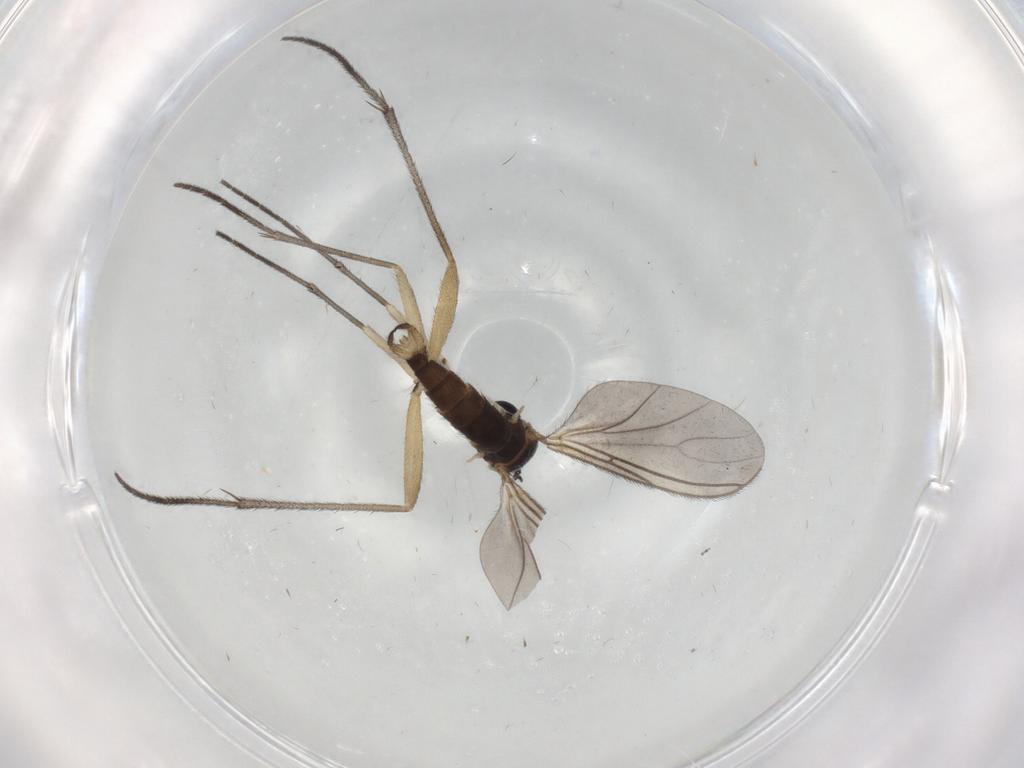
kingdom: Animalia
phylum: Arthropoda
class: Insecta
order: Diptera
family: Sciaridae
